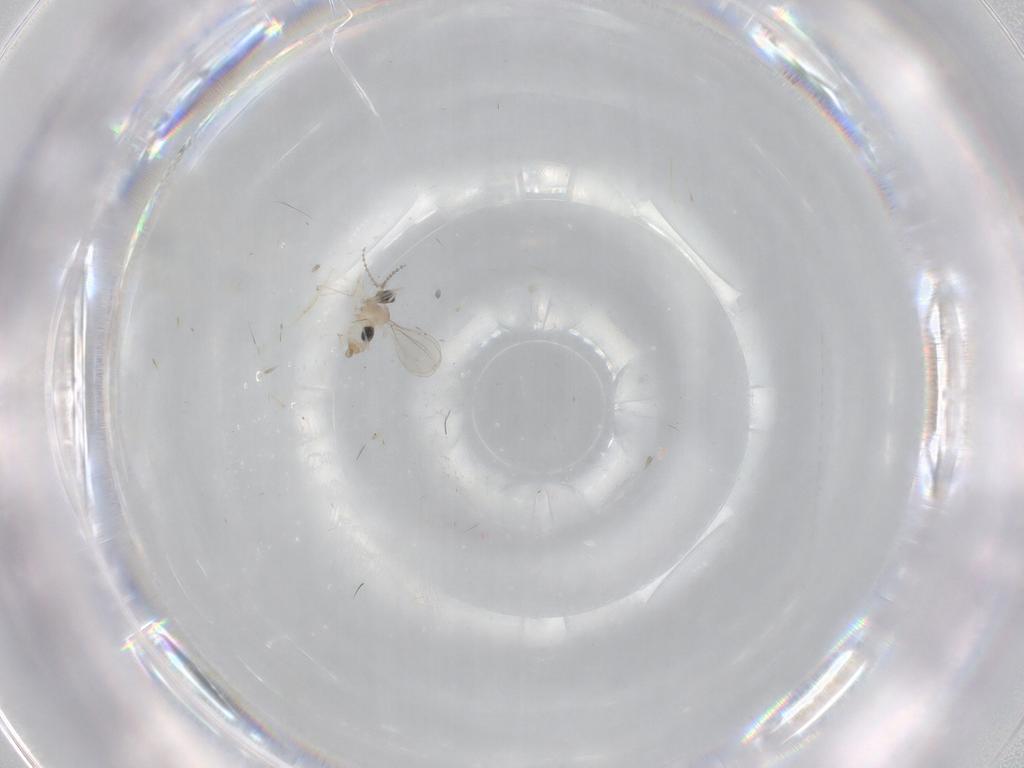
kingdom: Animalia
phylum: Arthropoda
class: Insecta
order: Diptera
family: Cecidomyiidae
